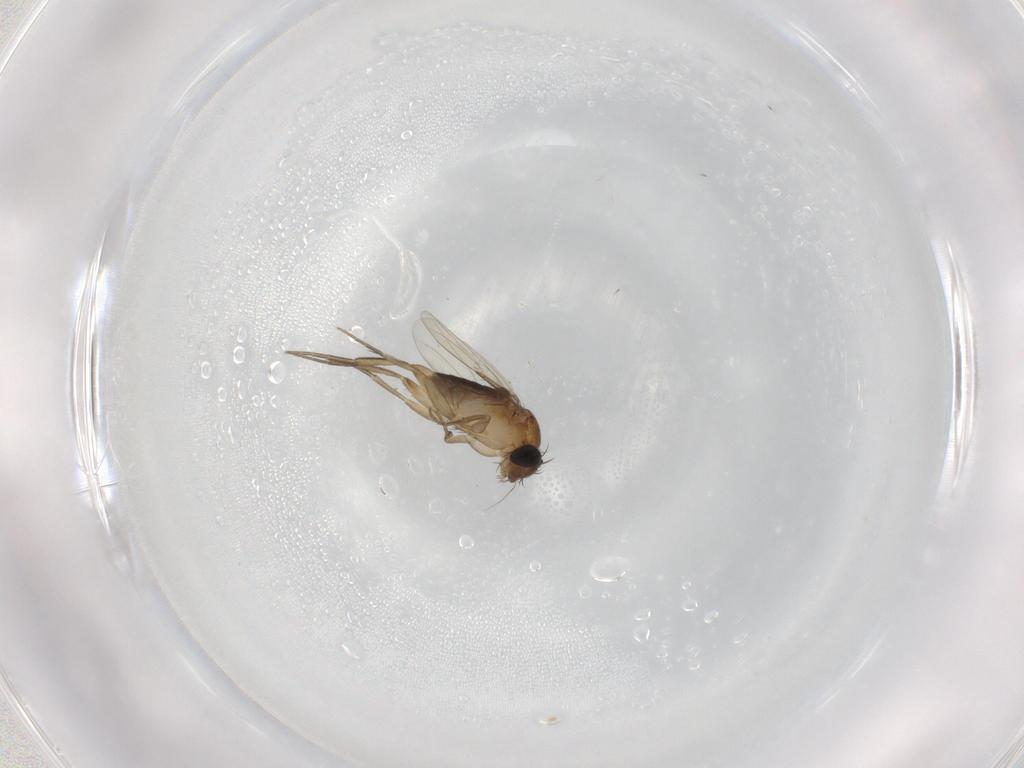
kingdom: Animalia
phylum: Arthropoda
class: Insecta
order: Diptera
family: Phoridae
